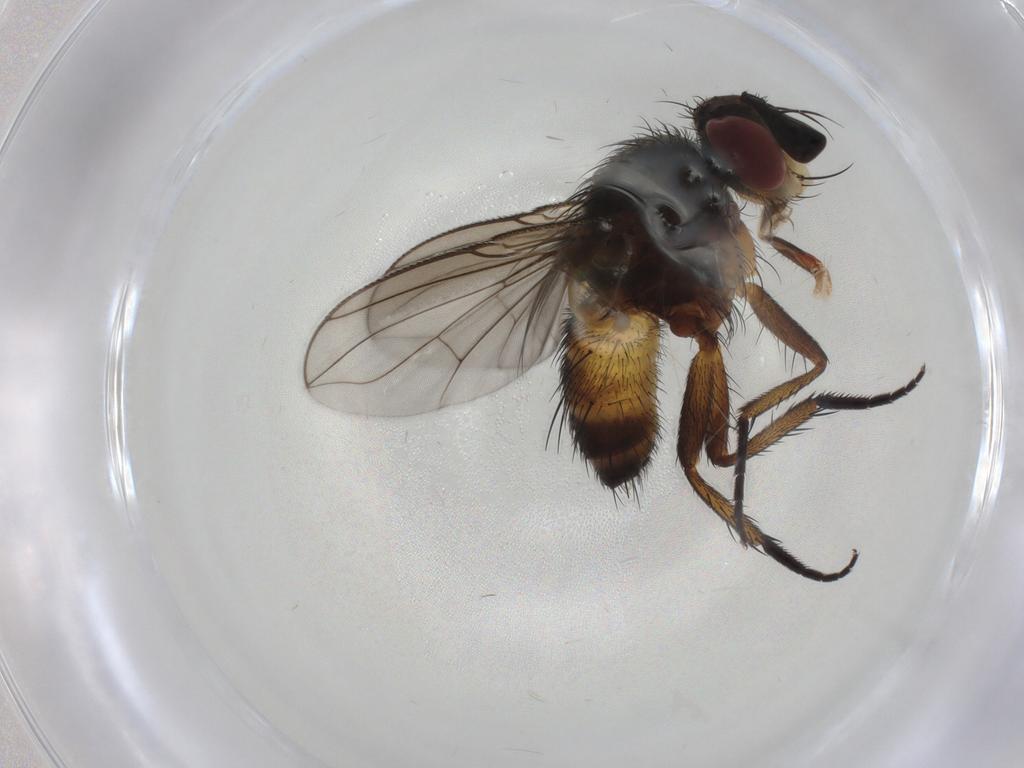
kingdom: Animalia
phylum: Arthropoda
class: Insecta
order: Diptera
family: Tachinidae
